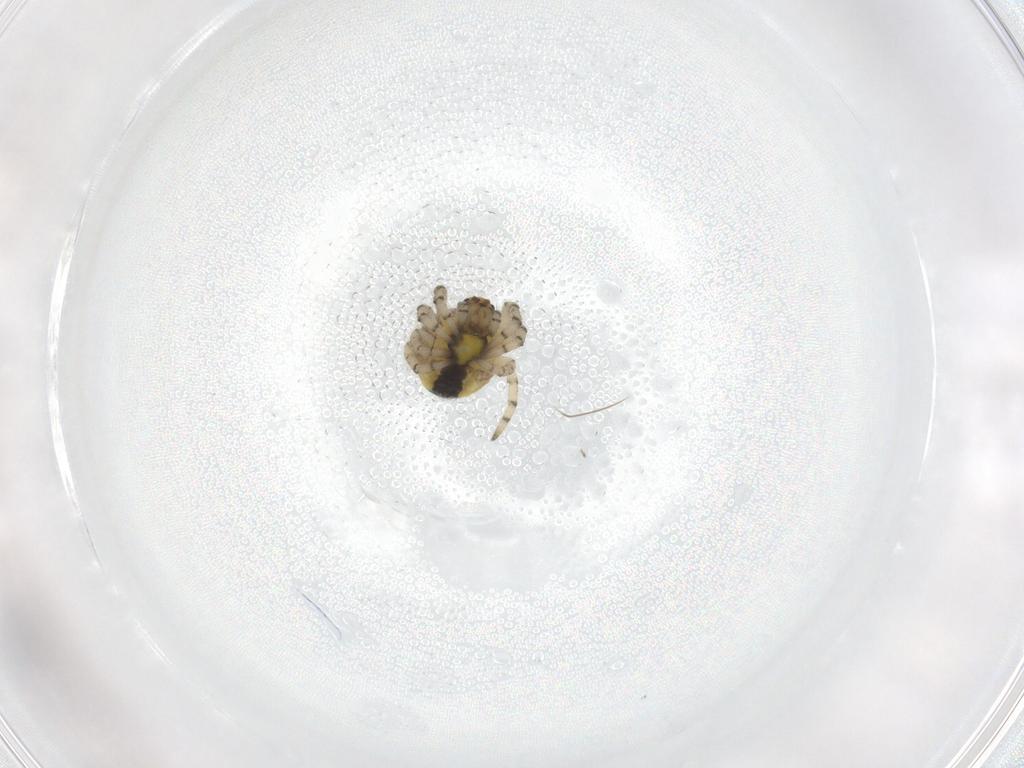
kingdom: Animalia
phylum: Arthropoda
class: Arachnida
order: Araneae
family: Araneidae
